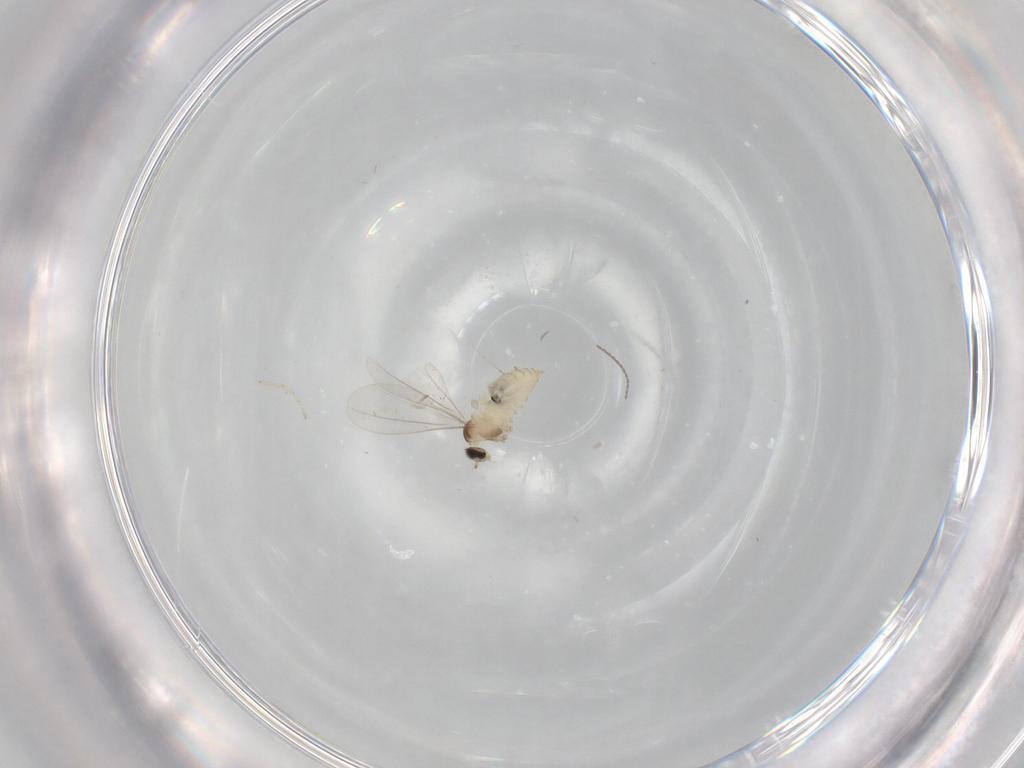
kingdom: Animalia
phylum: Arthropoda
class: Insecta
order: Diptera
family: Cecidomyiidae
